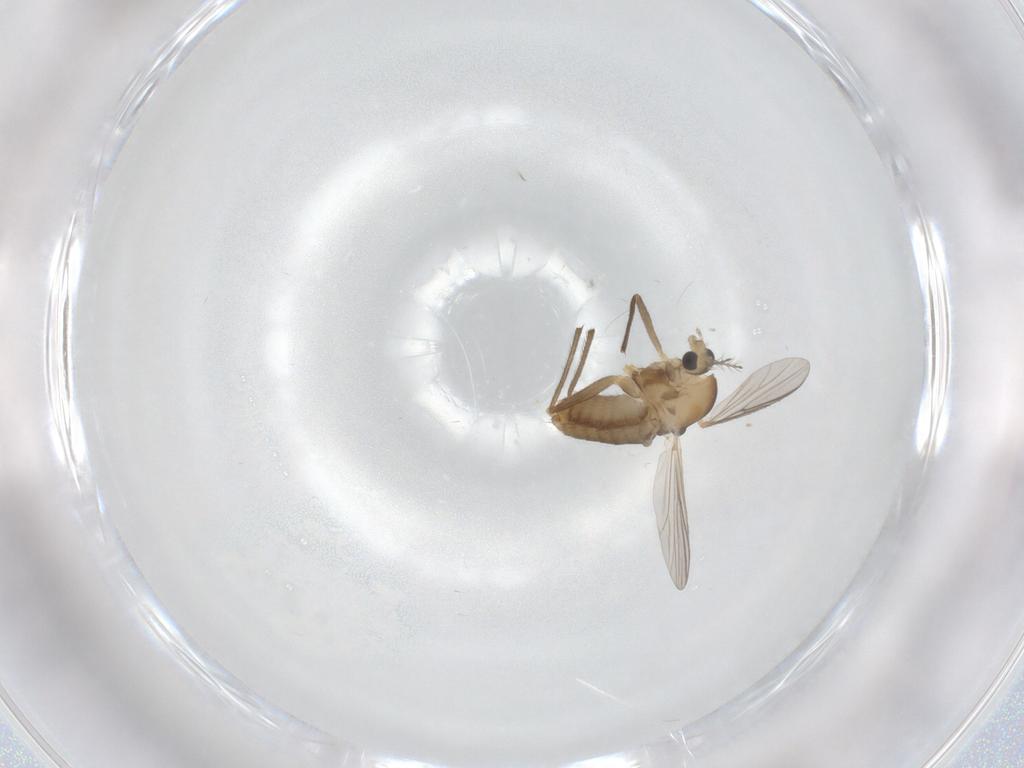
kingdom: Animalia
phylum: Arthropoda
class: Insecta
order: Diptera
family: Chironomidae
